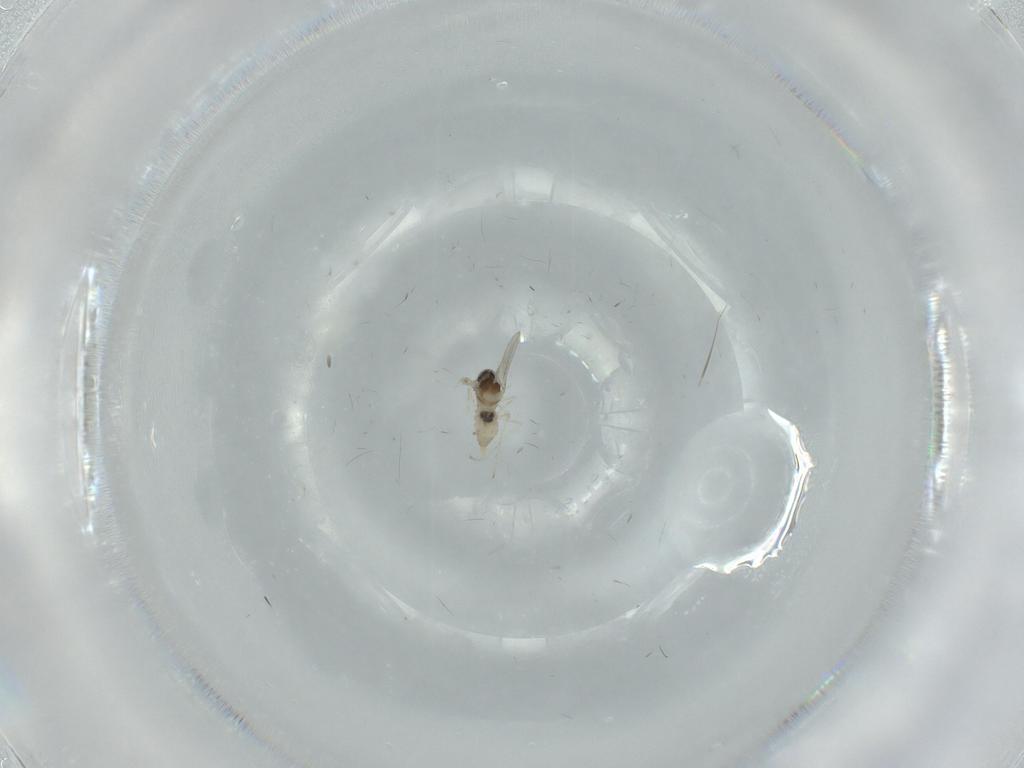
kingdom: Animalia
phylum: Arthropoda
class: Insecta
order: Diptera
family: Cecidomyiidae
